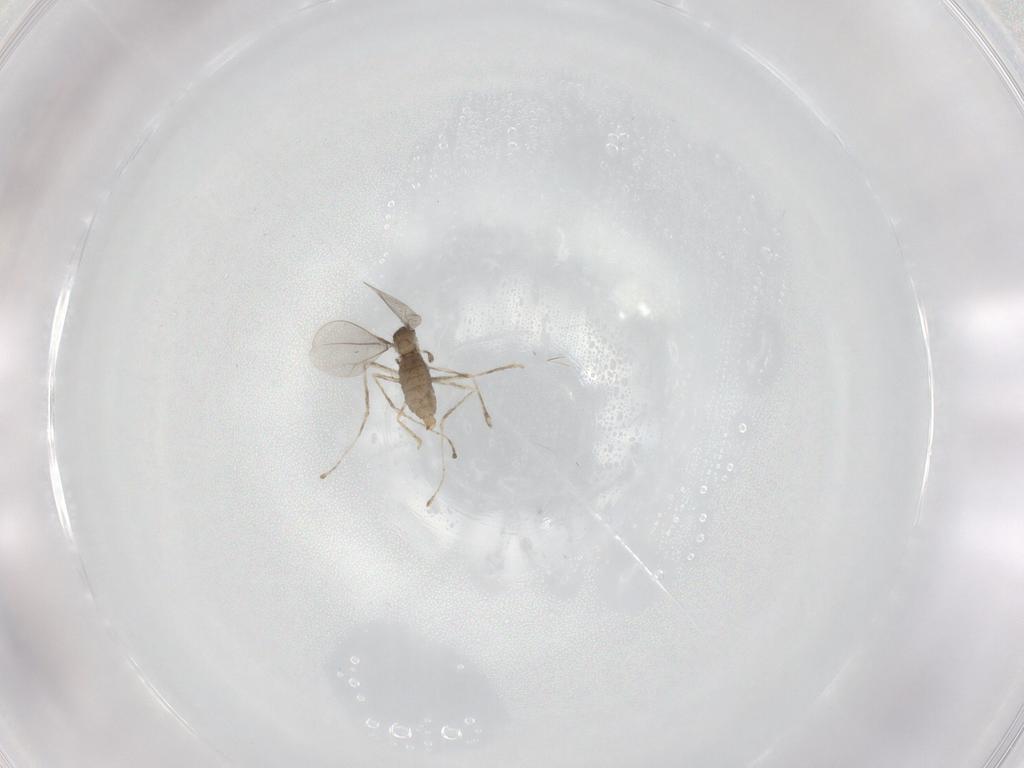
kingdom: Animalia
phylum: Arthropoda
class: Insecta
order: Diptera
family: Cecidomyiidae
